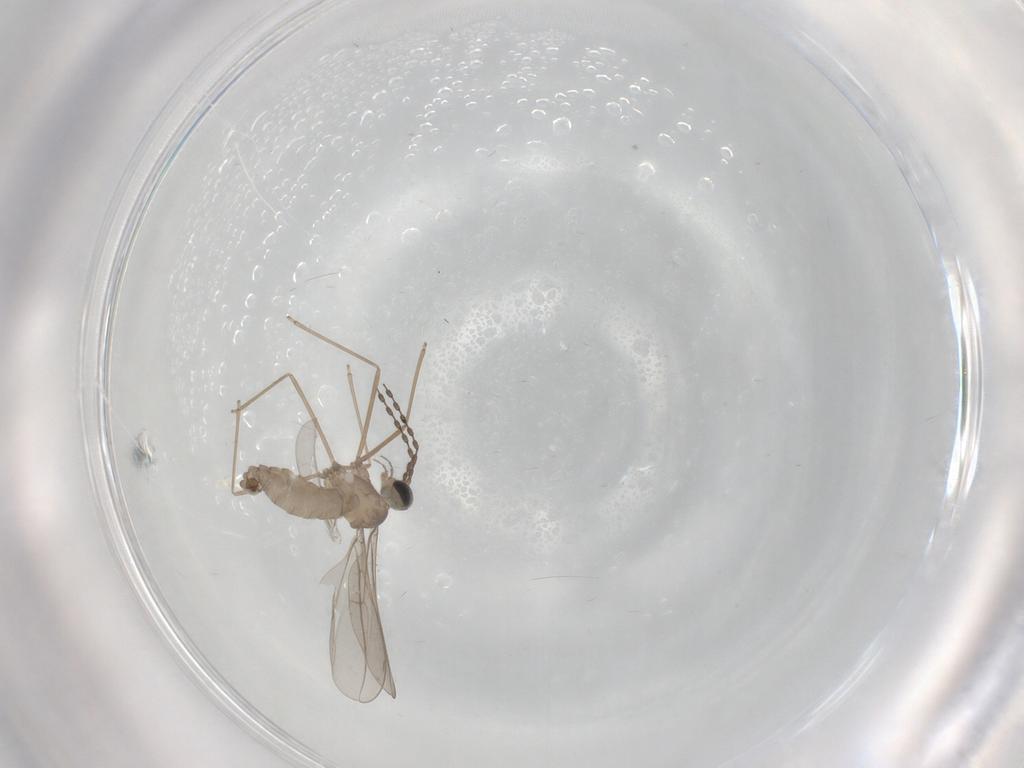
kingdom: Animalia
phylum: Arthropoda
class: Insecta
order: Diptera
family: Cecidomyiidae
